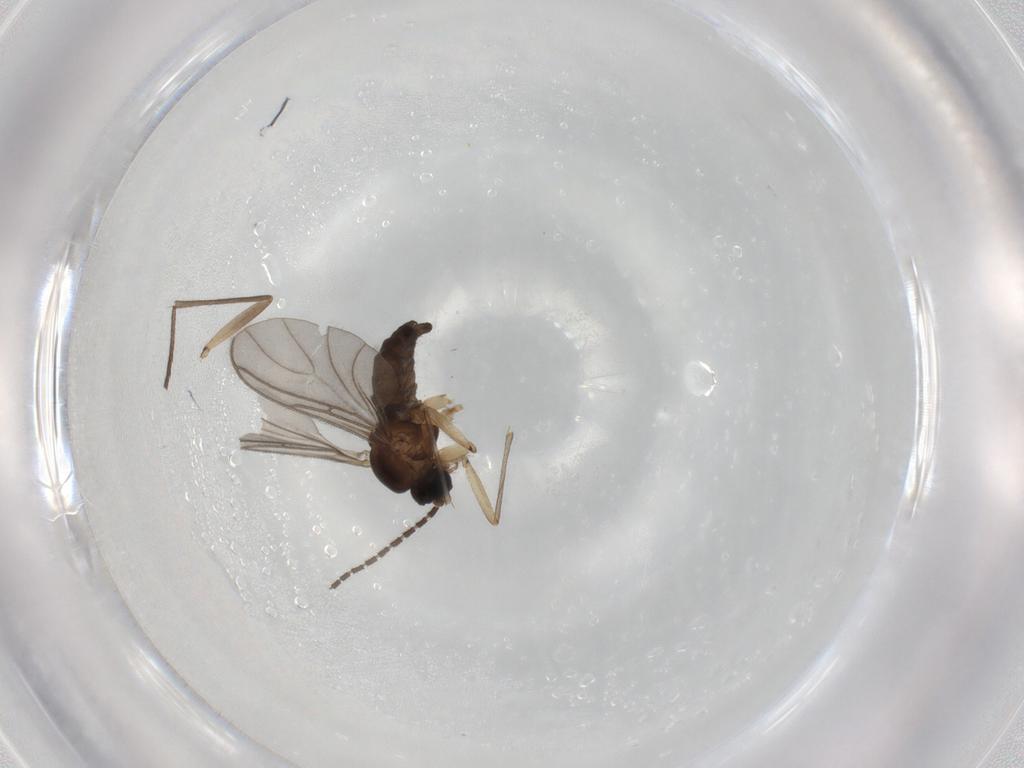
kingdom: Animalia
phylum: Arthropoda
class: Insecta
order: Diptera
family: Sciaridae
